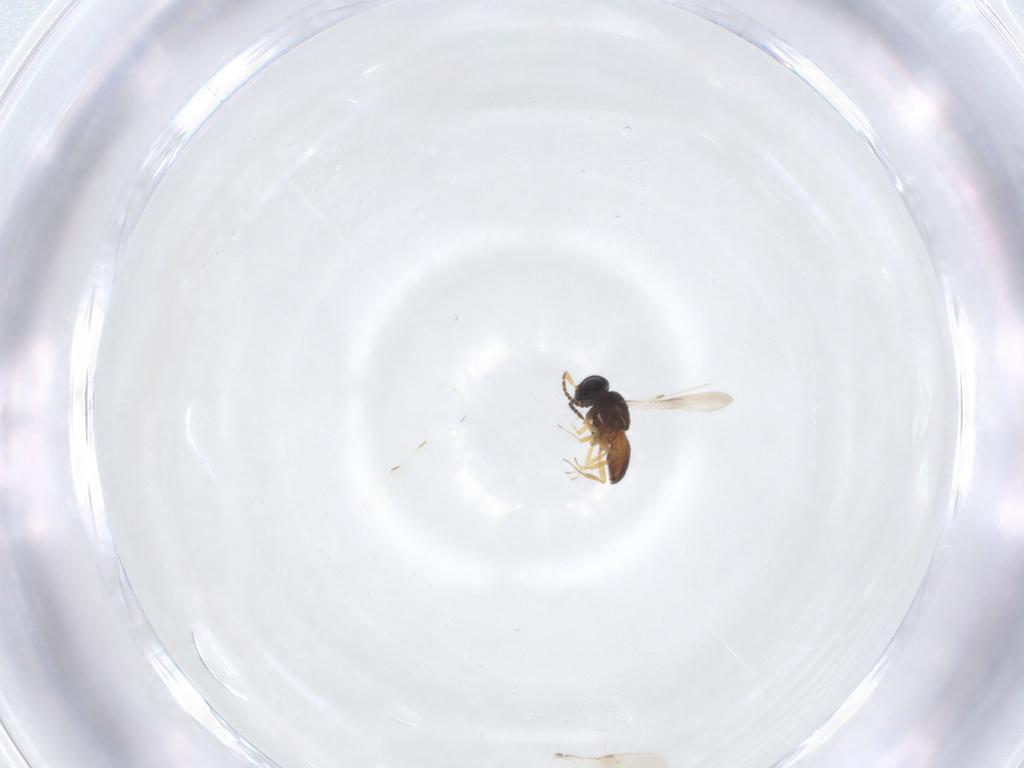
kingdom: Animalia
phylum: Arthropoda
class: Insecta
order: Hymenoptera
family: Scelionidae
